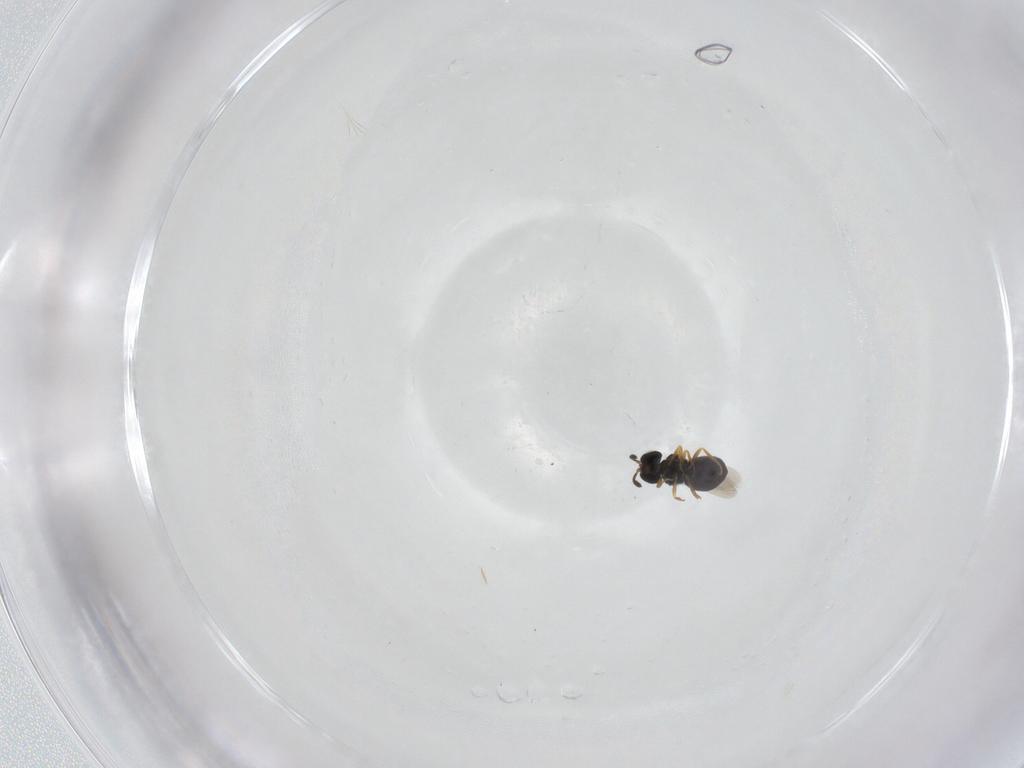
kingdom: Animalia
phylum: Arthropoda
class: Insecta
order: Hymenoptera
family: Scelionidae
